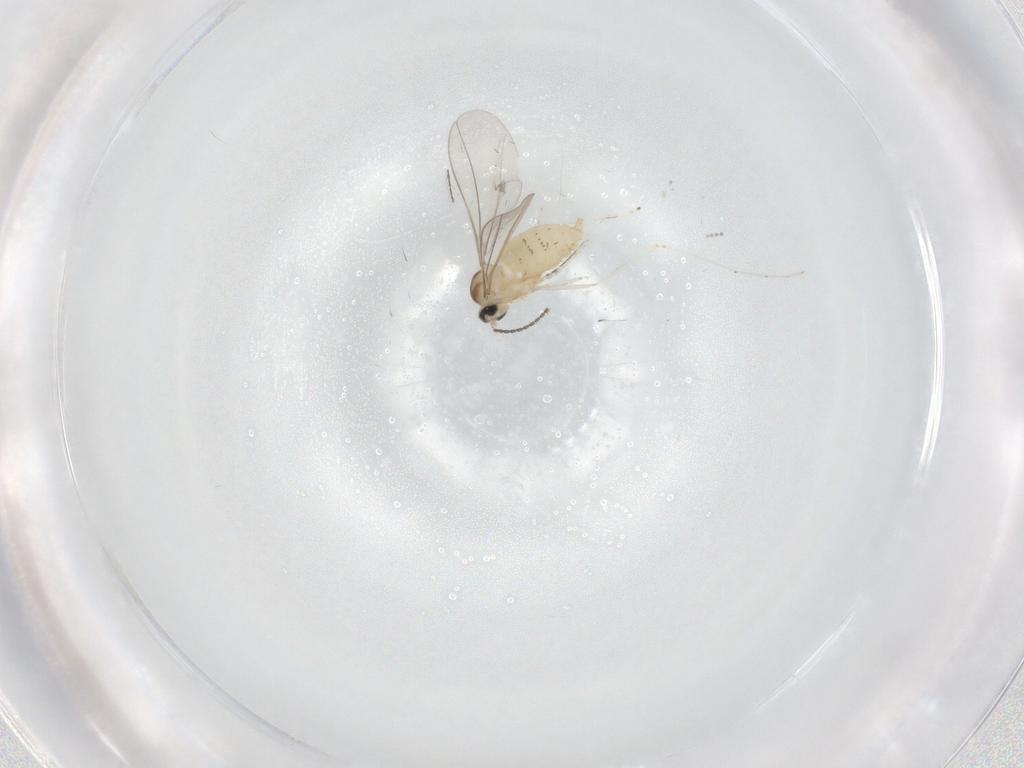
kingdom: Animalia
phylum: Arthropoda
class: Insecta
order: Diptera
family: Cecidomyiidae
